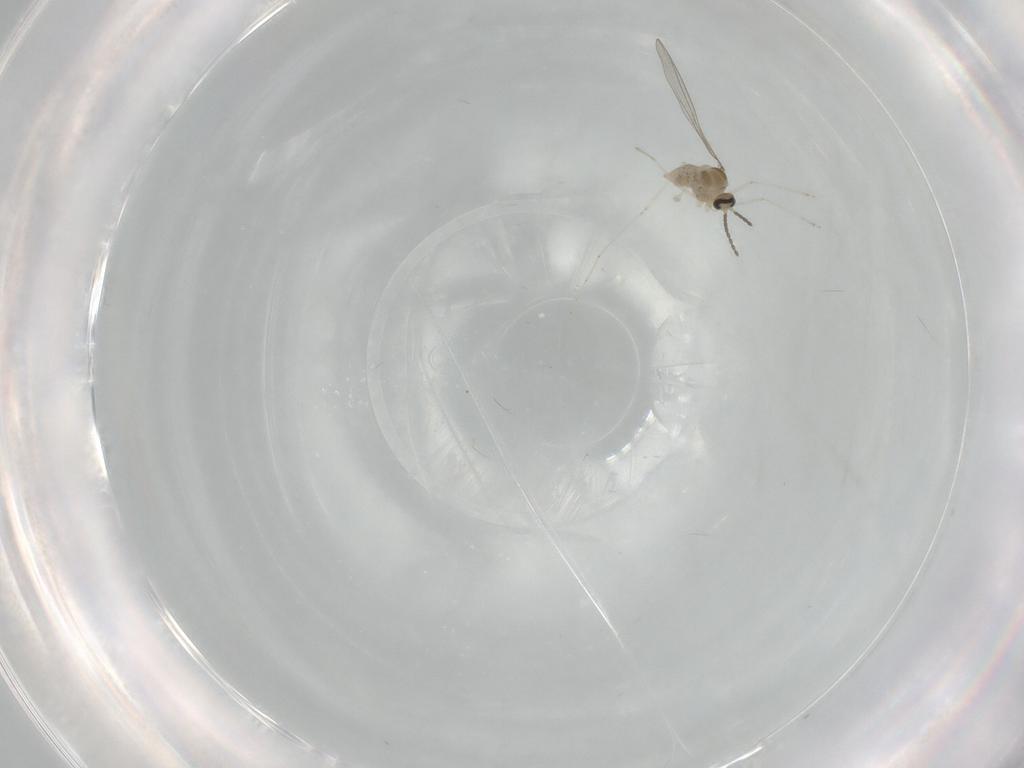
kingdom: Animalia
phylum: Arthropoda
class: Insecta
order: Diptera
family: Cecidomyiidae
